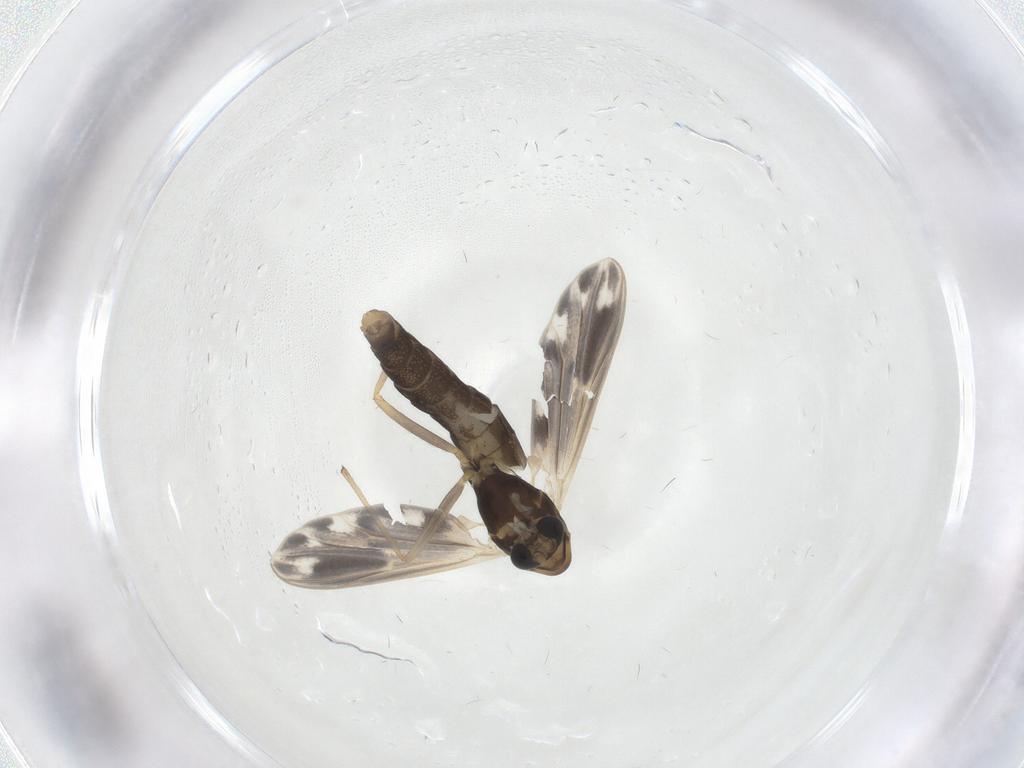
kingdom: Animalia
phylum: Arthropoda
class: Insecta
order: Diptera
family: Chironomidae
